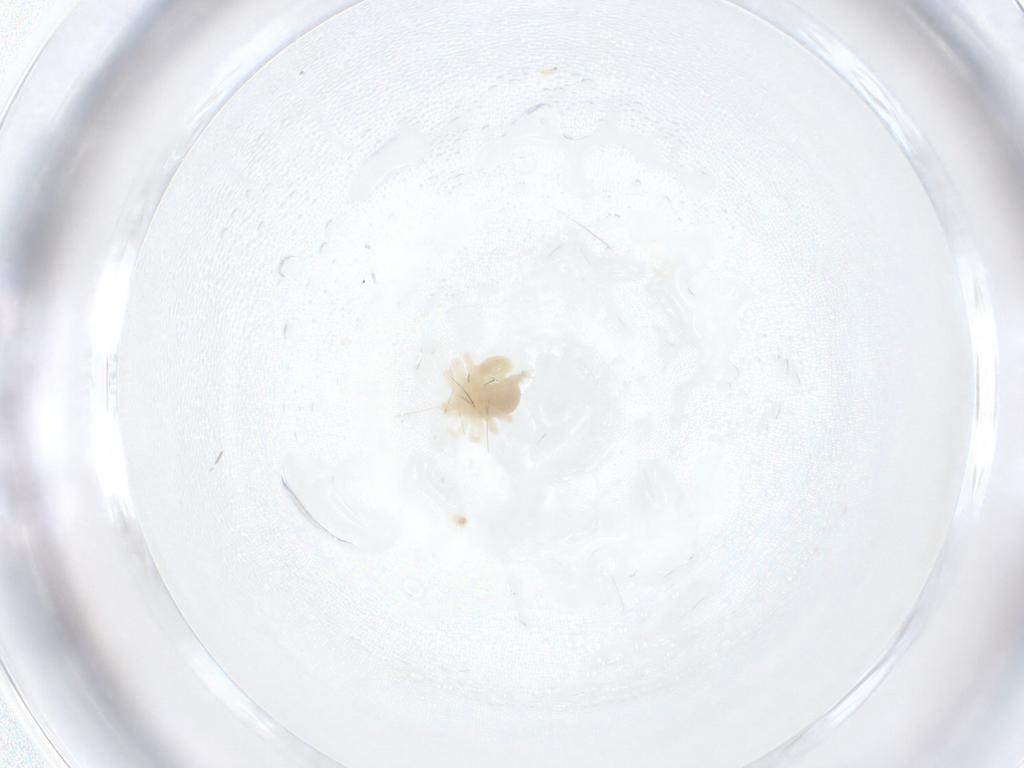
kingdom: Animalia
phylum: Arthropoda
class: Arachnida
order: Trombidiformes
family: Anystidae
